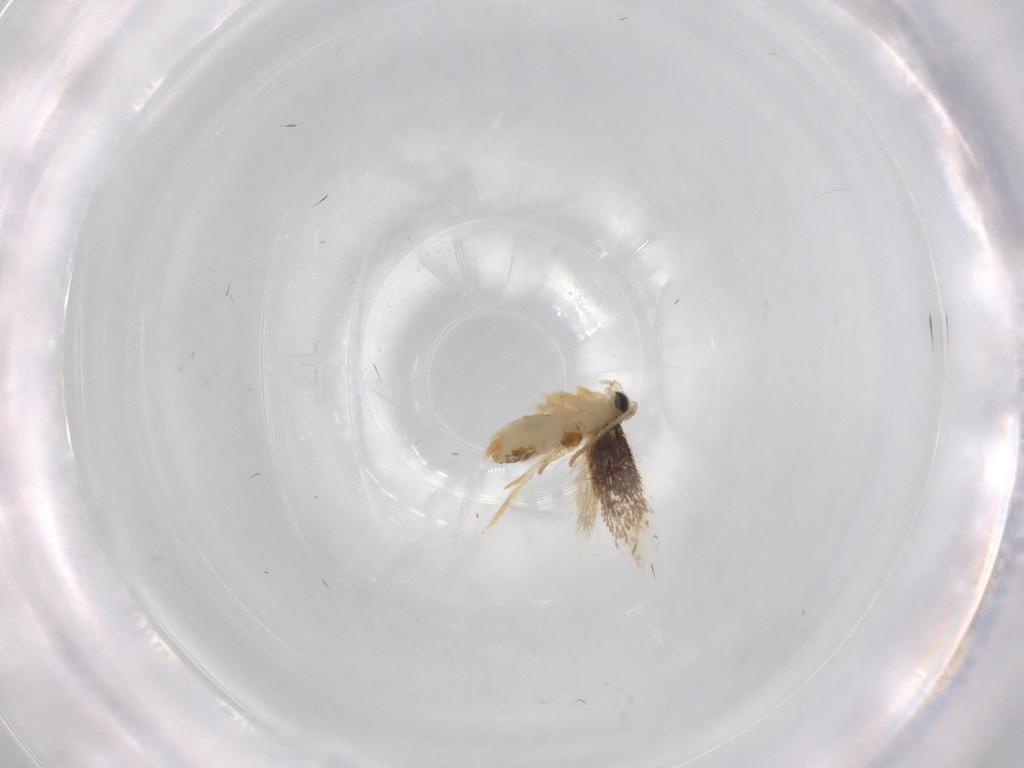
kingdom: Animalia
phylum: Arthropoda
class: Insecta
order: Lepidoptera
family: Nepticulidae
